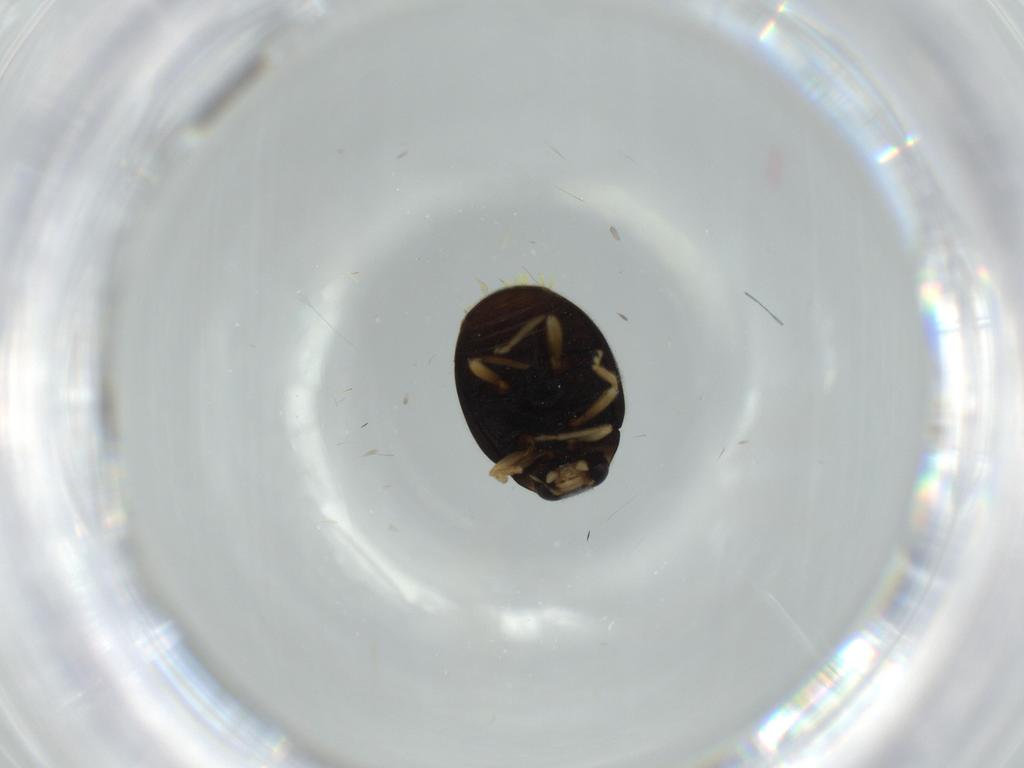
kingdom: Animalia
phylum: Arthropoda
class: Insecta
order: Coleoptera
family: Coccinellidae
